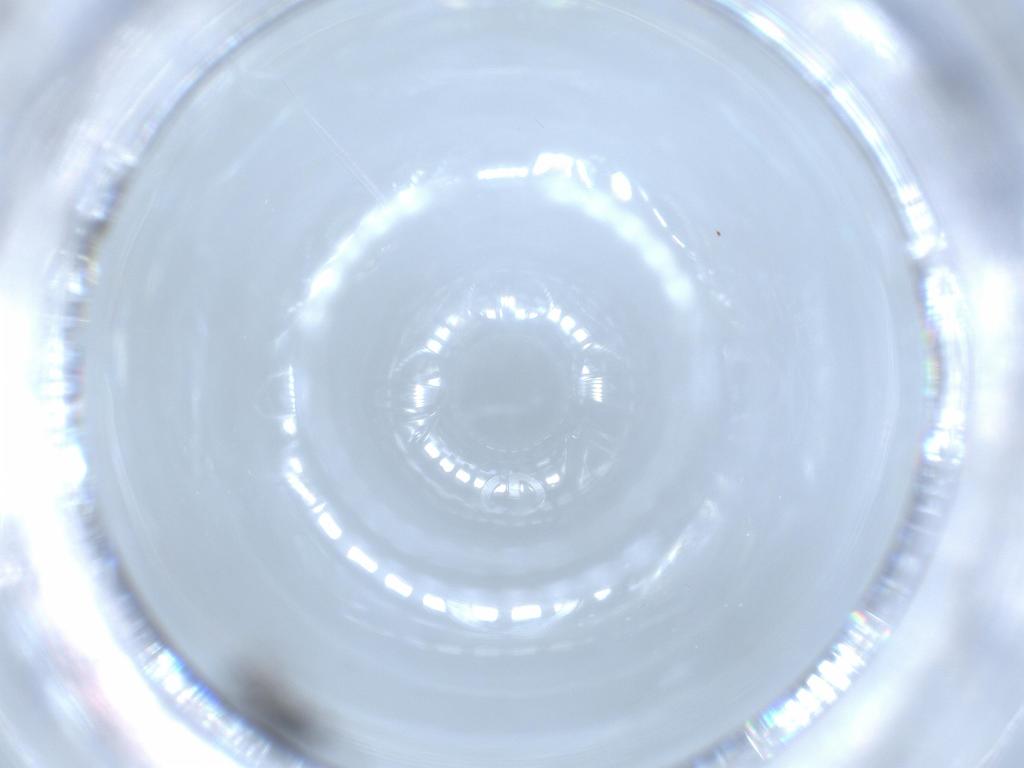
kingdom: Animalia
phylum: Arthropoda
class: Insecta
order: Hymenoptera
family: Scelionidae
